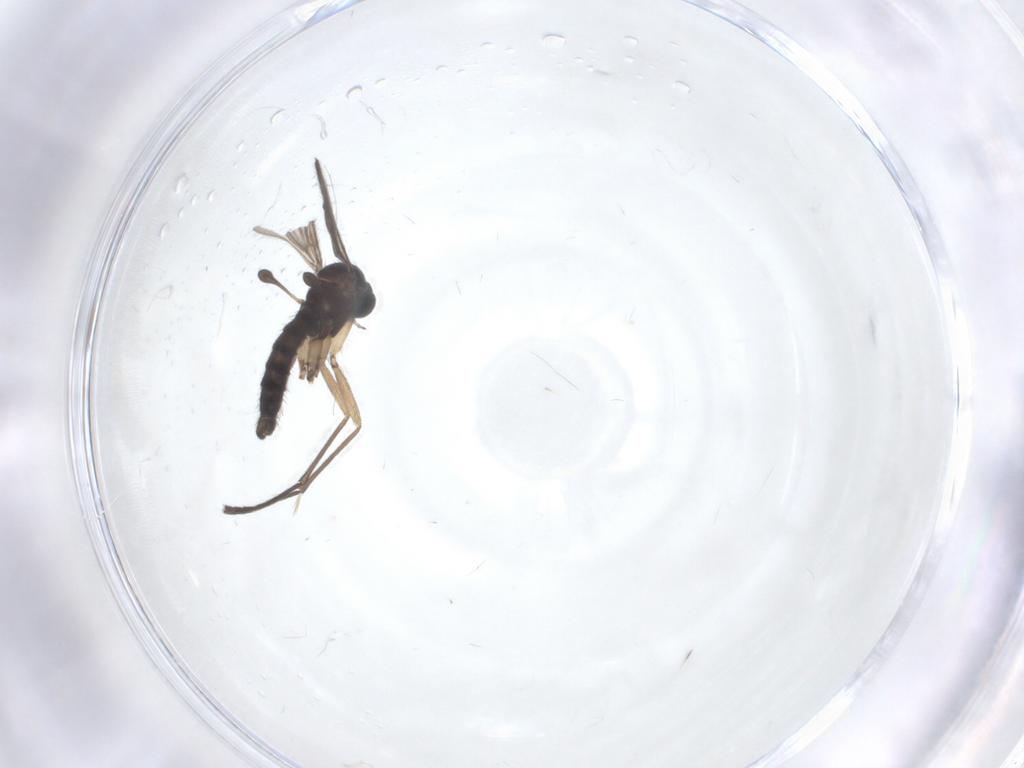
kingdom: Animalia
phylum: Arthropoda
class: Insecta
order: Diptera
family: Sciaridae
